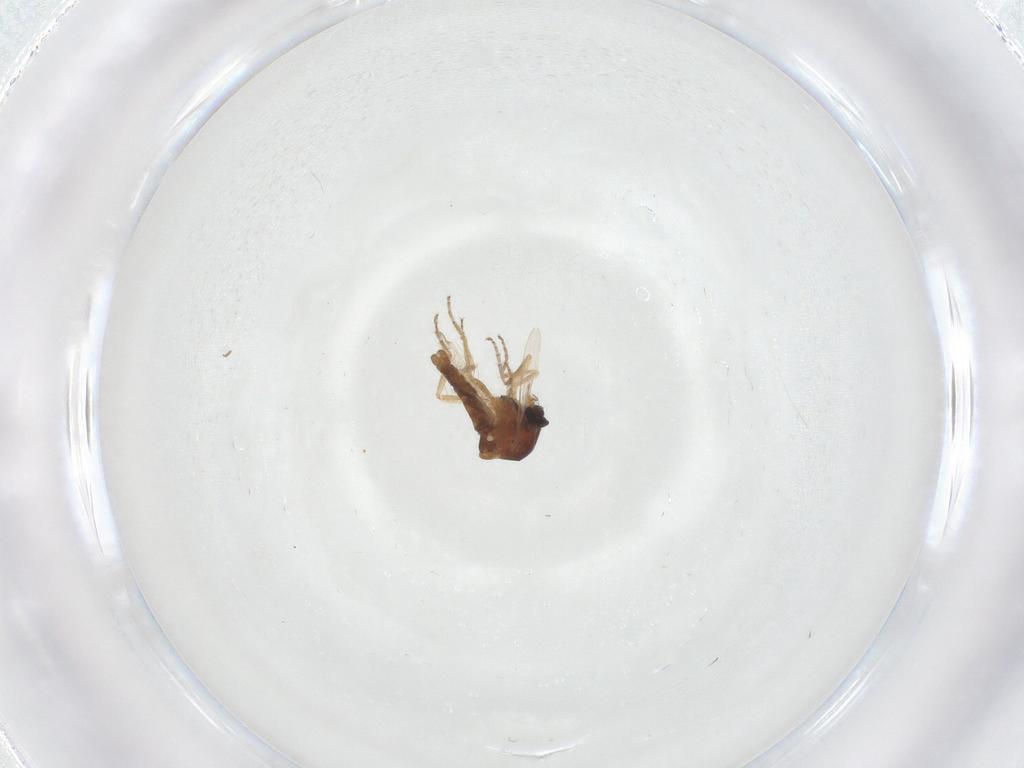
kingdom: Animalia
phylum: Arthropoda
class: Insecta
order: Diptera
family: Ceratopogonidae
